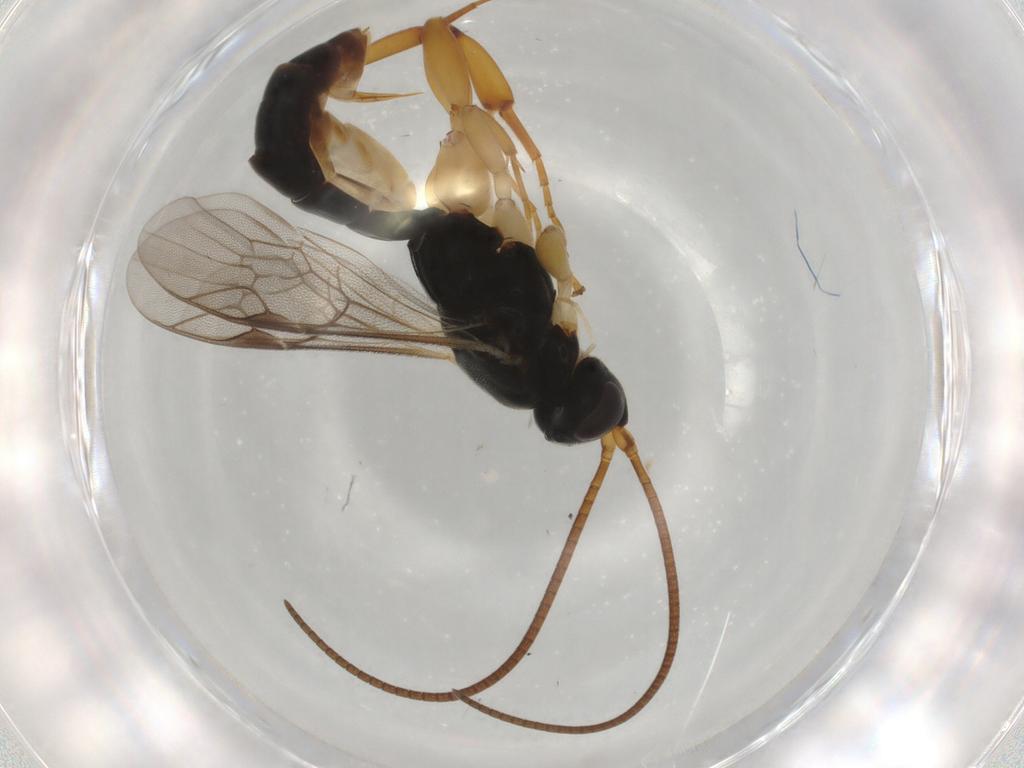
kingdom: Animalia
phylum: Arthropoda
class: Insecta
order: Hymenoptera
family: Ichneumonidae
